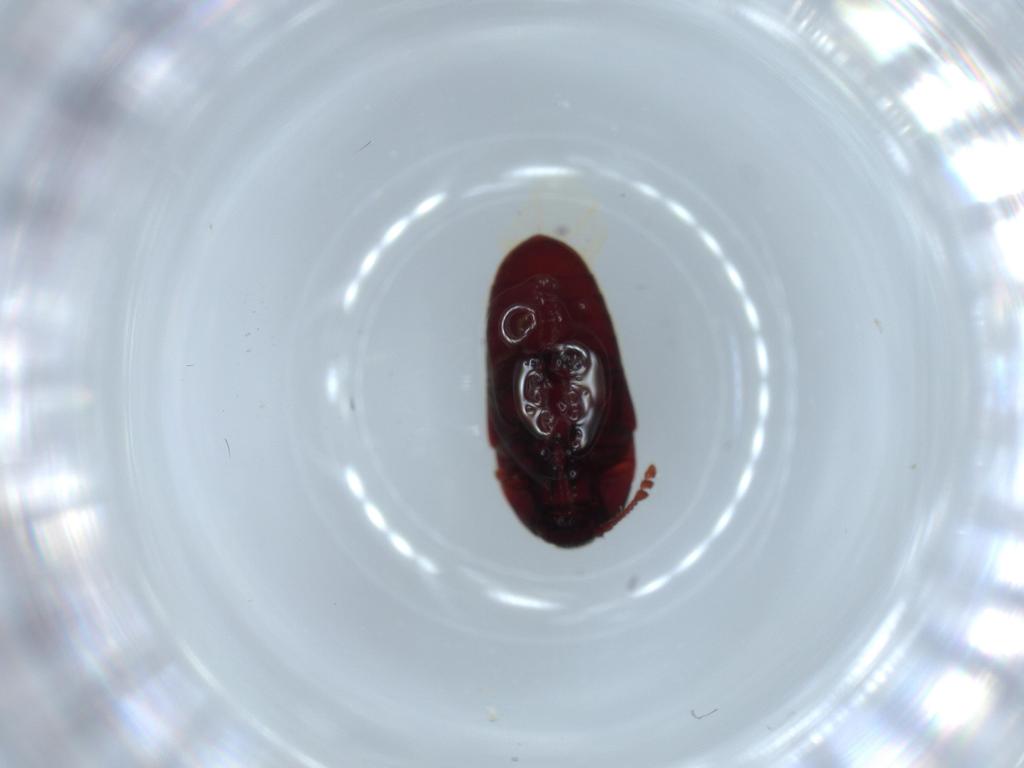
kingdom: Animalia
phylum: Arthropoda
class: Insecta
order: Coleoptera
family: Throscidae
